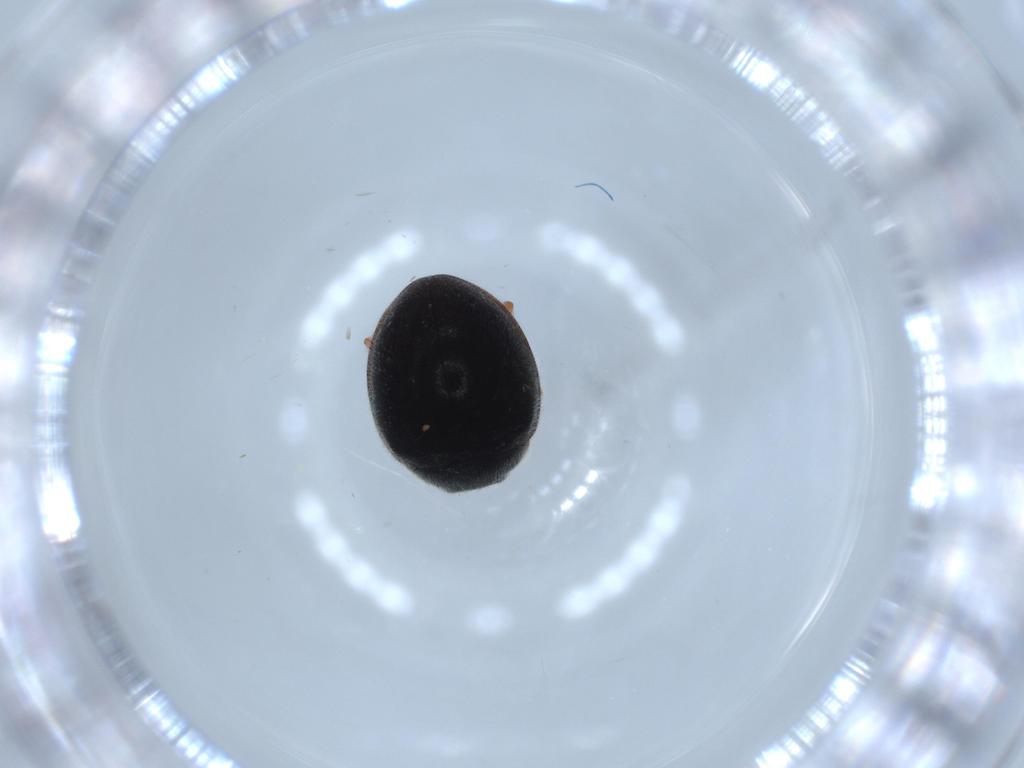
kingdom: Animalia
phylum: Arthropoda
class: Insecta
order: Coleoptera
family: Coccinellidae
